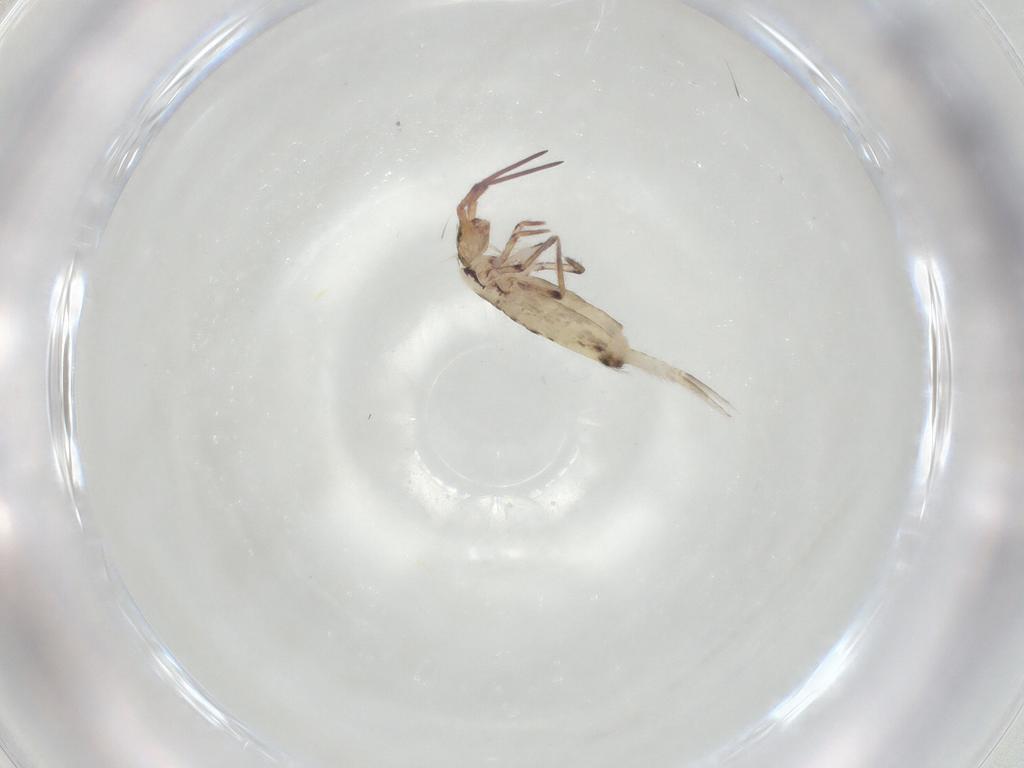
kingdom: Animalia
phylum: Arthropoda
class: Collembola
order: Entomobryomorpha
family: Entomobryidae
